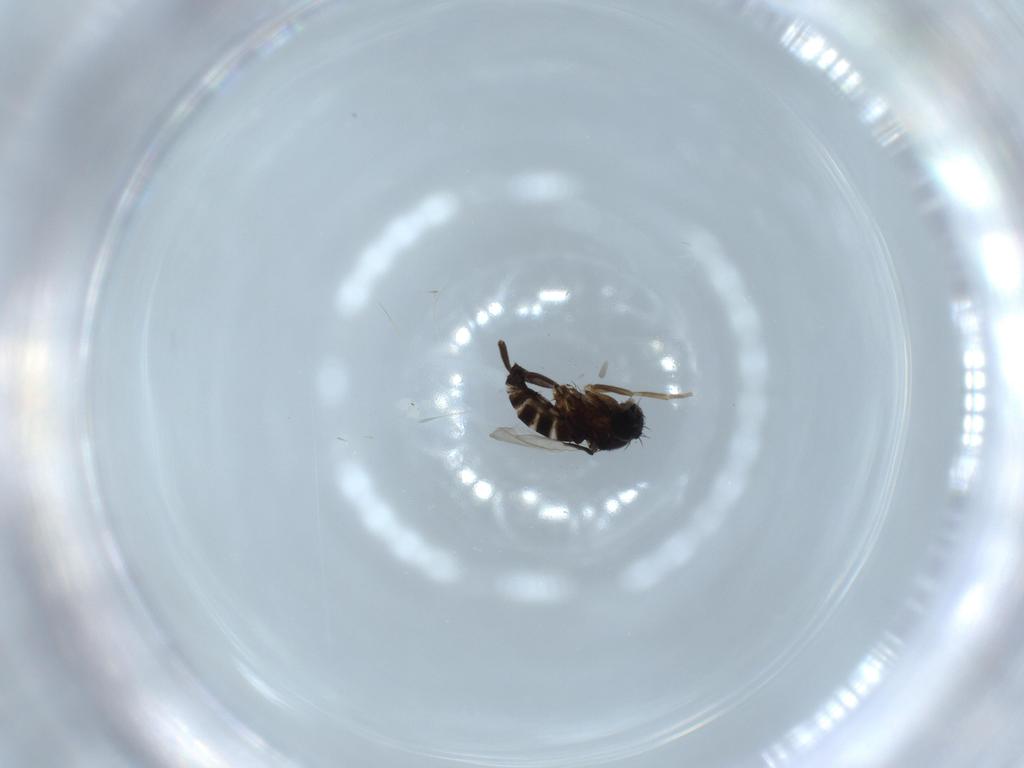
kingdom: Animalia
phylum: Arthropoda
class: Insecta
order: Diptera
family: Phoridae
